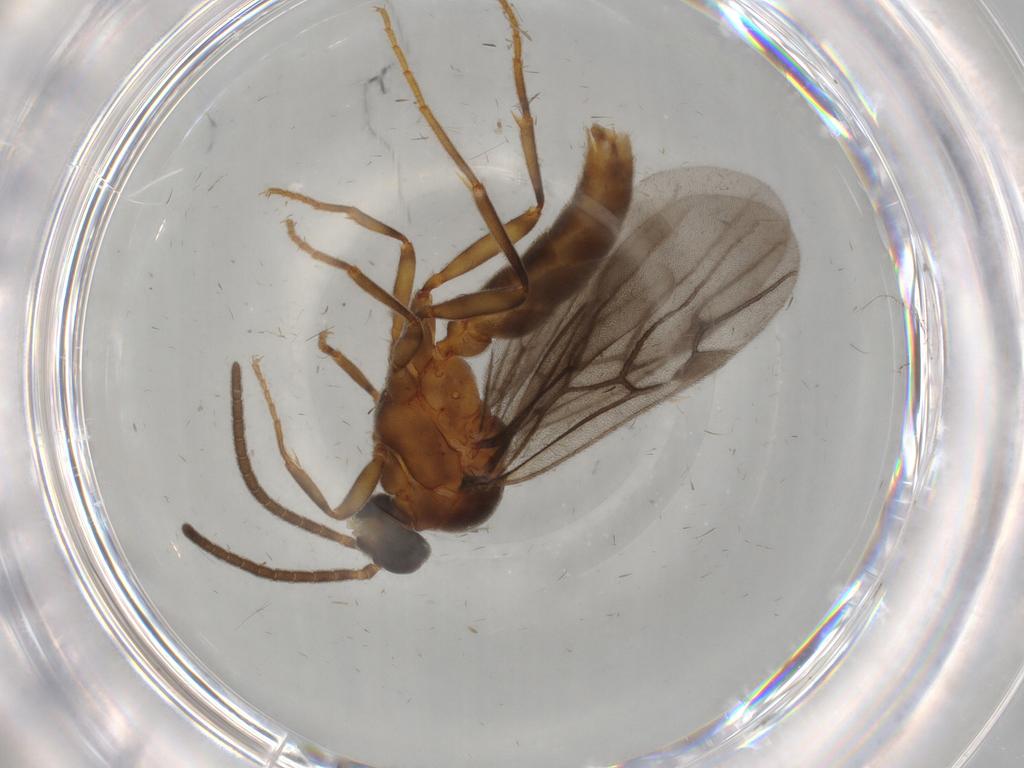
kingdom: Animalia
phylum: Arthropoda
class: Insecta
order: Hymenoptera
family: Formicidae
